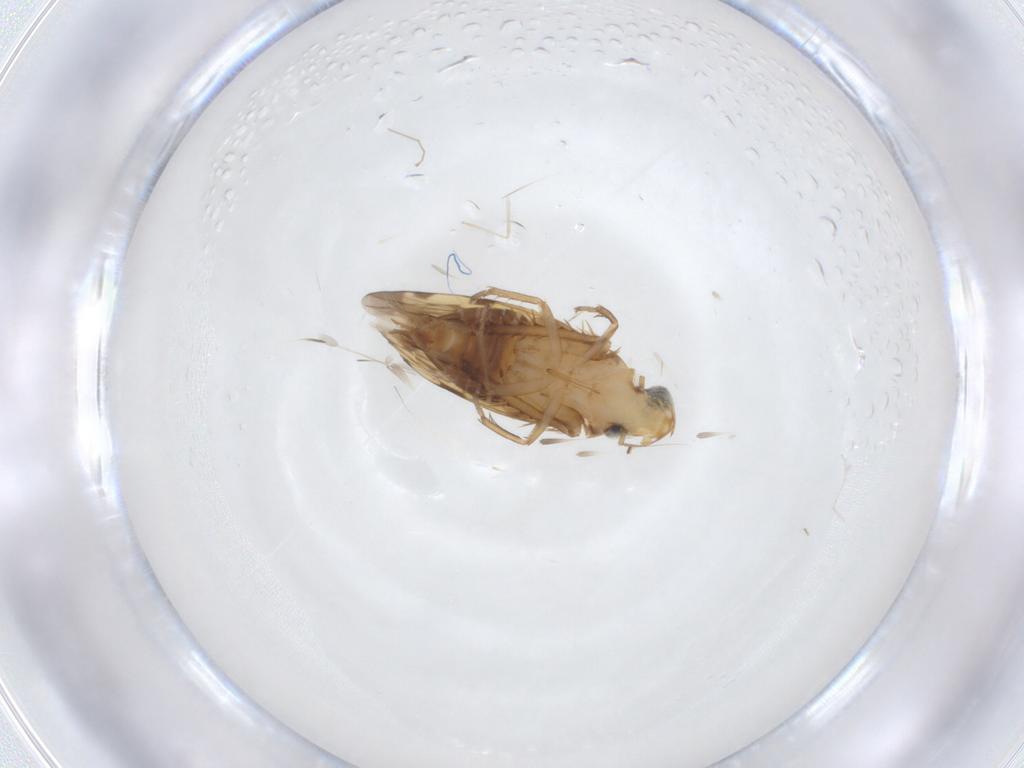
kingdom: Animalia
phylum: Arthropoda
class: Insecta
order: Hemiptera
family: Cicadellidae
